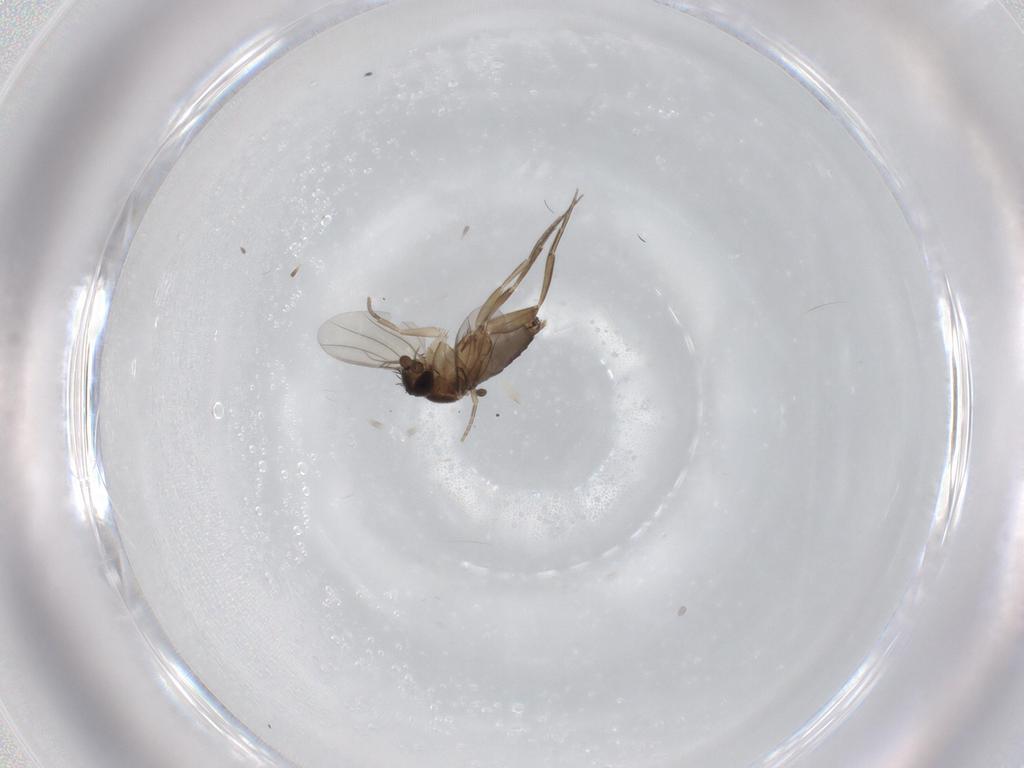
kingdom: Animalia
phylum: Arthropoda
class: Insecta
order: Diptera
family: Phoridae
